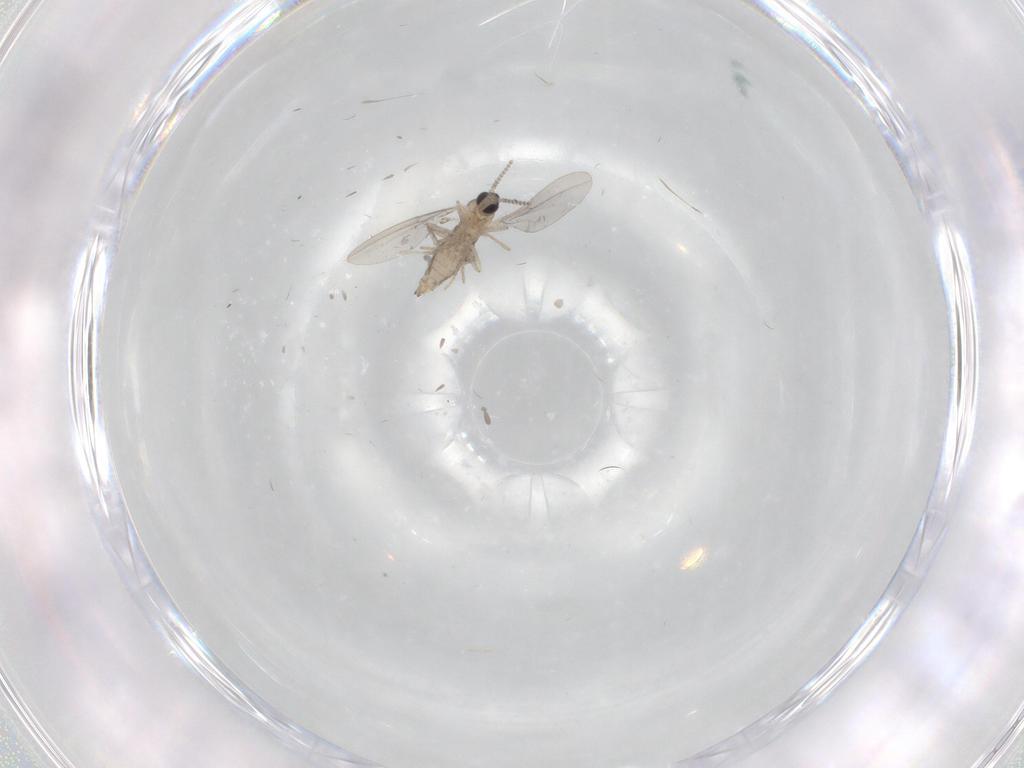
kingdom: Animalia
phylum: Arthropoda
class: Insecta
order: Diptera
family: Cecidomyiidae
